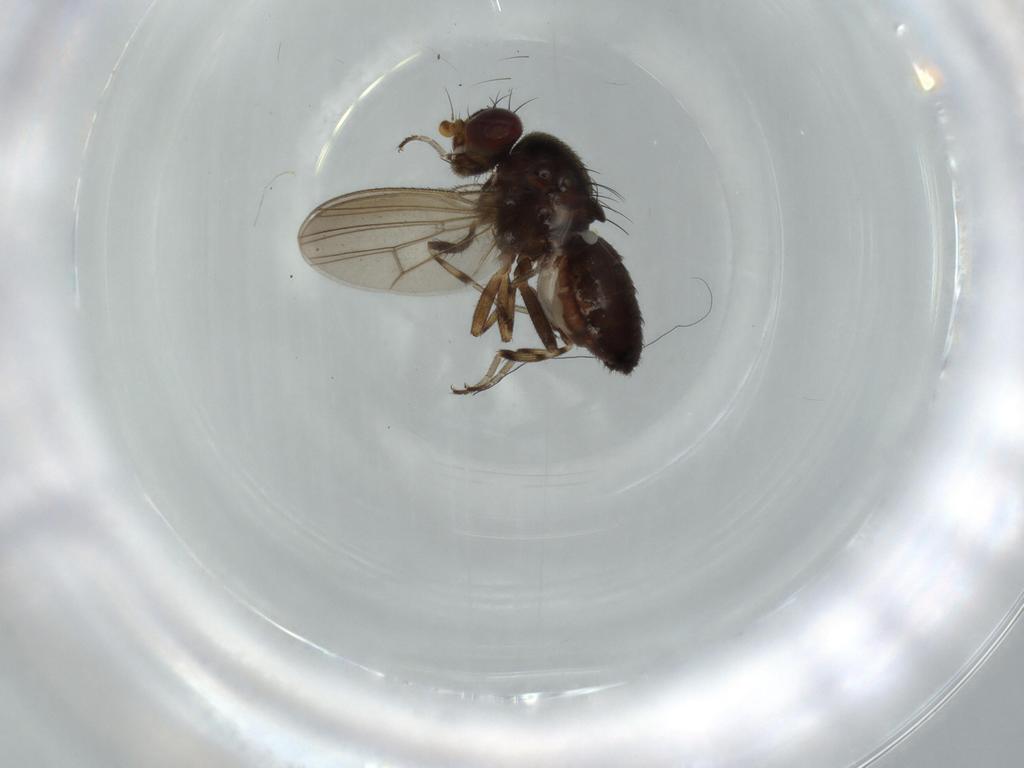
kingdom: Animalia
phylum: Arthropoda
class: Insecta
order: Diptera
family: Heleomyzidae
